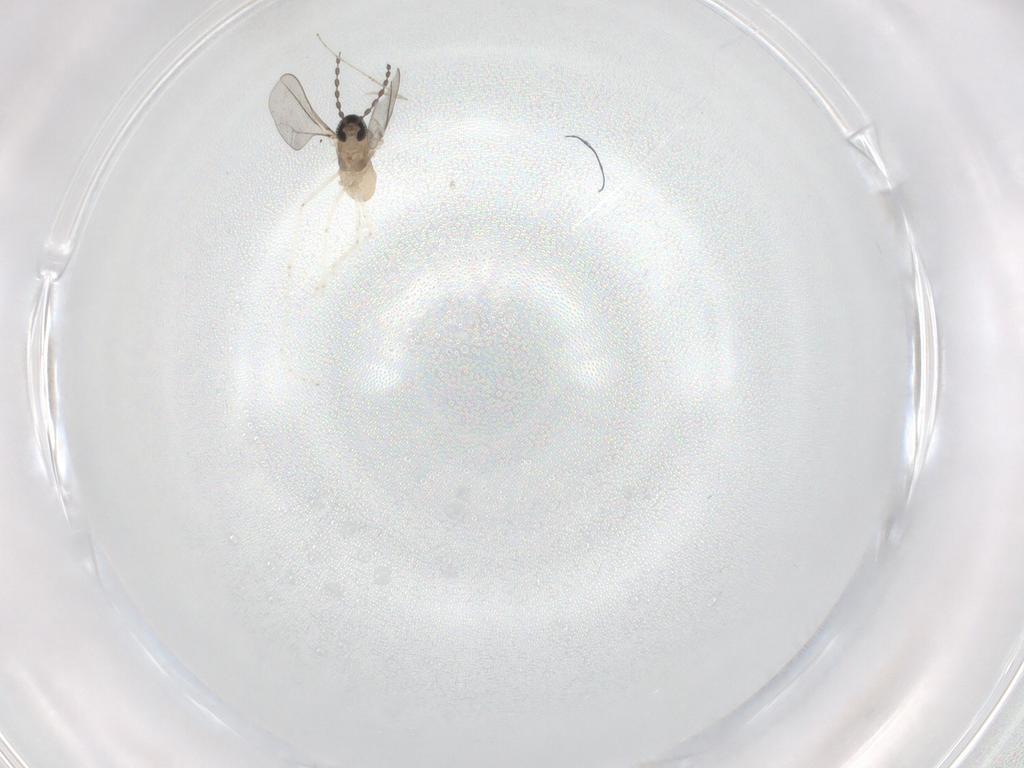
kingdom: Animalia
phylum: Arthropoda
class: Insecta
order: Diptera
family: Cecidomyiidae
